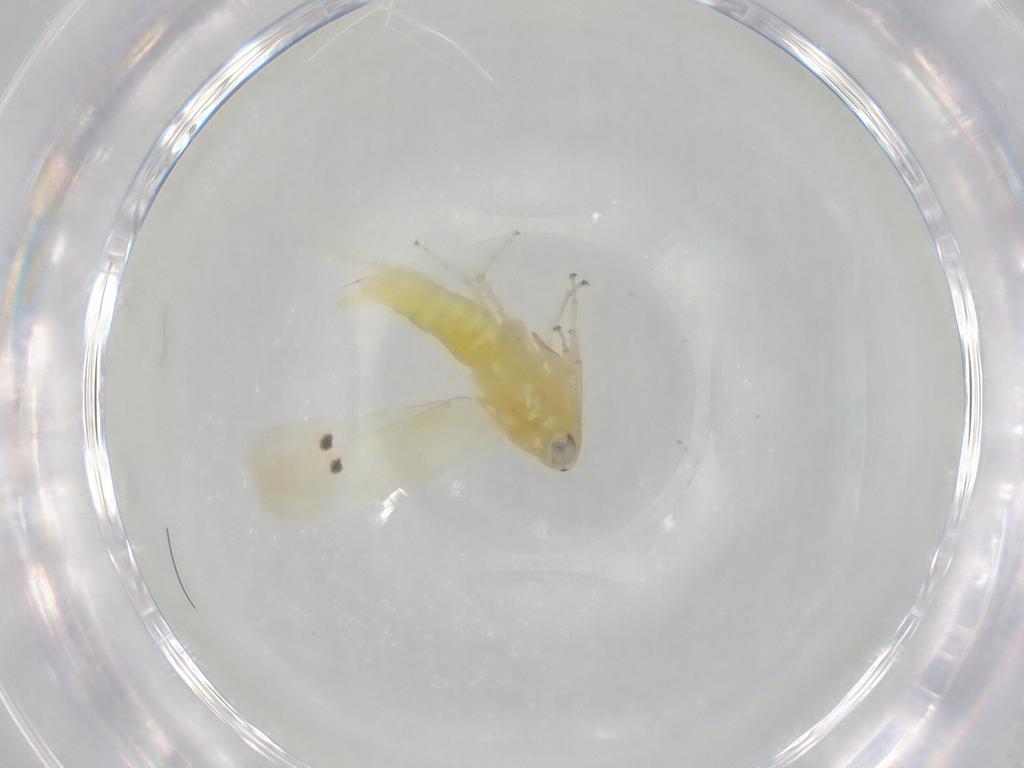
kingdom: Animalia
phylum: Arthropoda
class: Insecta
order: Hemiptera
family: Cicadellidae
